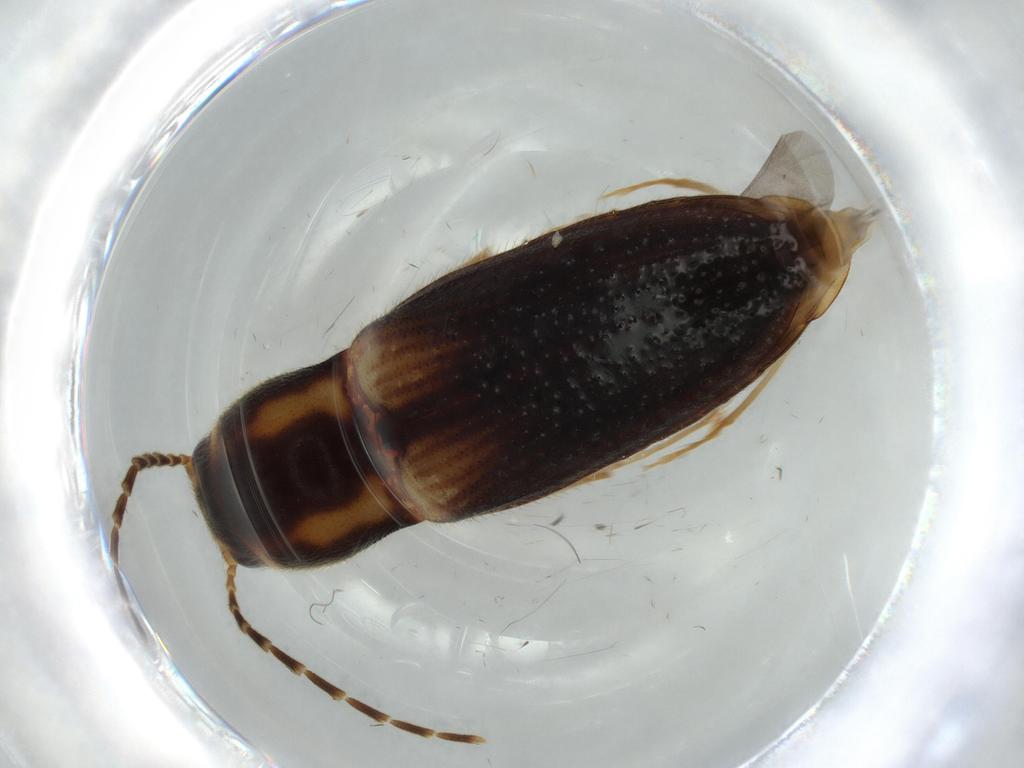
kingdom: Animalia
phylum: Arthropoda
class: Insecta
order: Coleoptera
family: Elateridae
